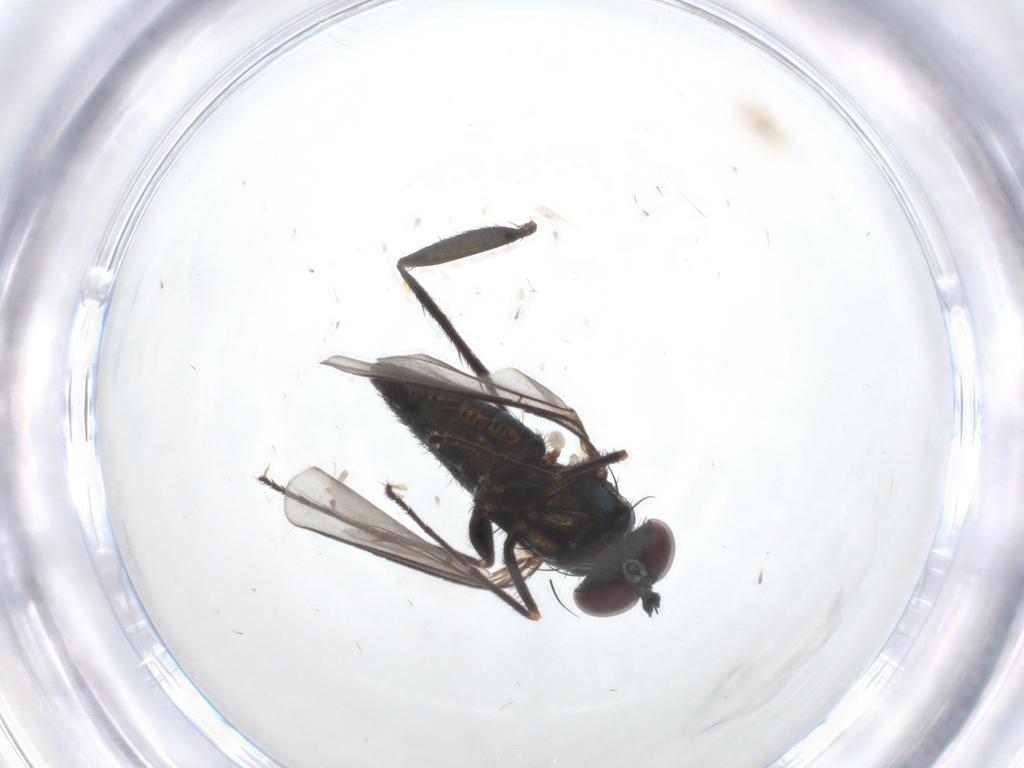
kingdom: Animalia
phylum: Arthropoda
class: Insecta
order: Diptera
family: Dolichopodidae
